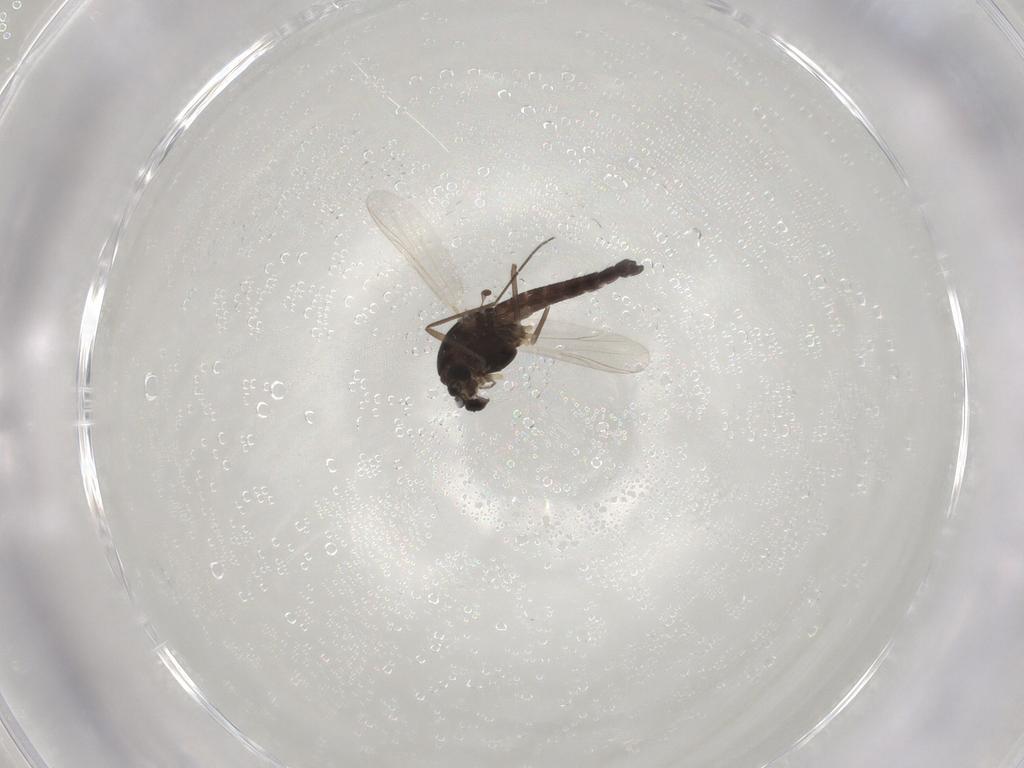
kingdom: Animalia
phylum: Arthropoda
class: Insecta
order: Diptera
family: Chironomidae
